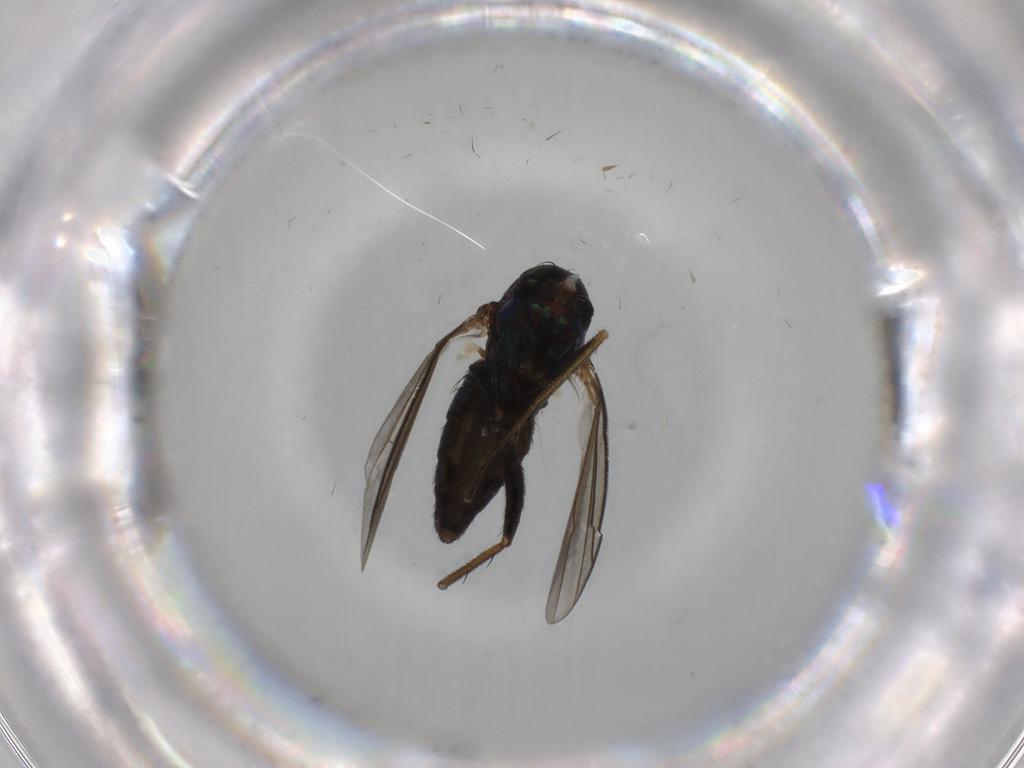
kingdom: Animalia
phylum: Arthropoda
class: Insecta
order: Diptera
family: Dolichopodidae
